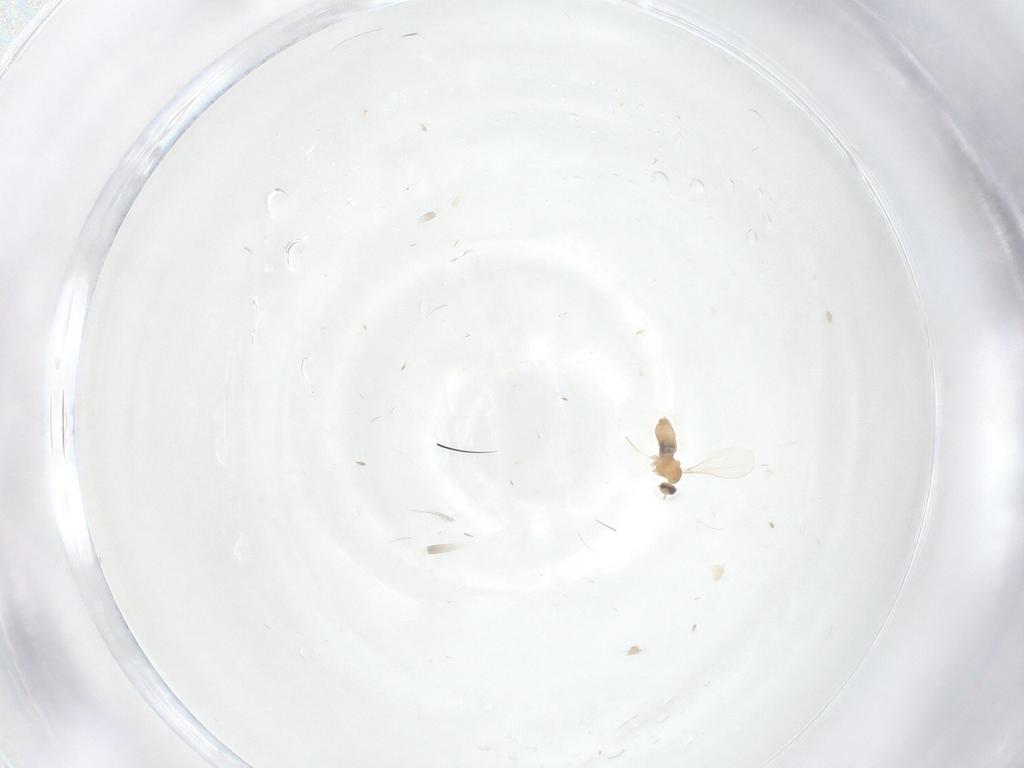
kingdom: Animalia
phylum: Arthropoda
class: Insecta
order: Diptera
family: Cecidomyiidae
